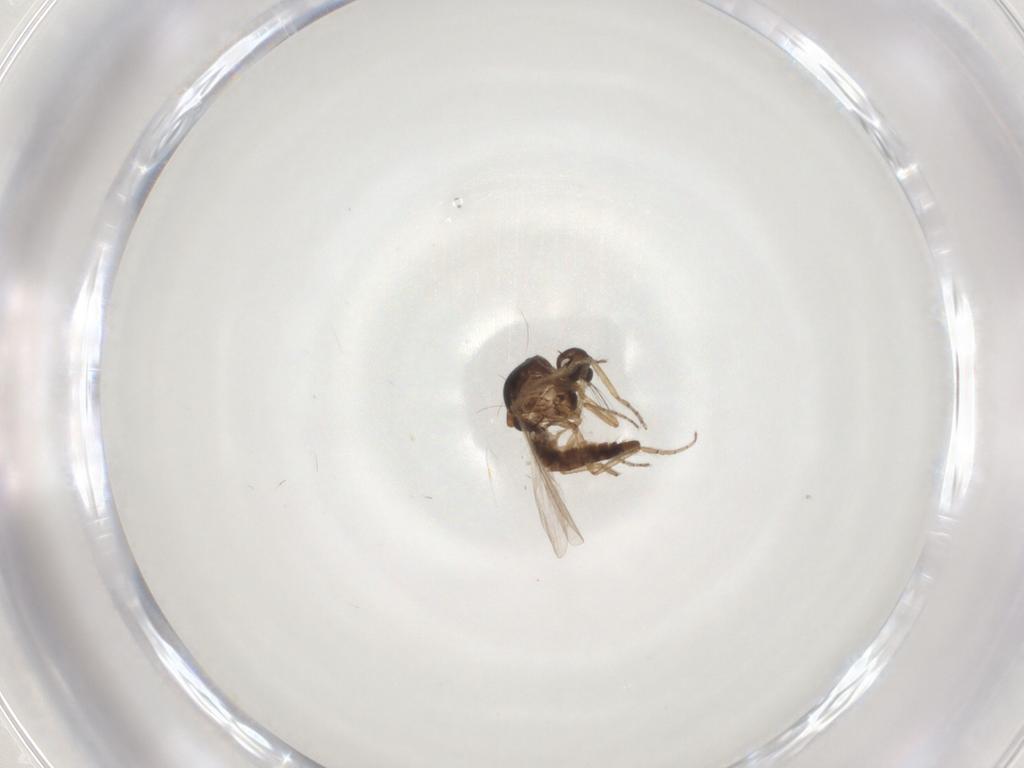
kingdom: Animalia
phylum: Arthropoda
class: Insecta
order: Diptera
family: Ceratopogonidae
